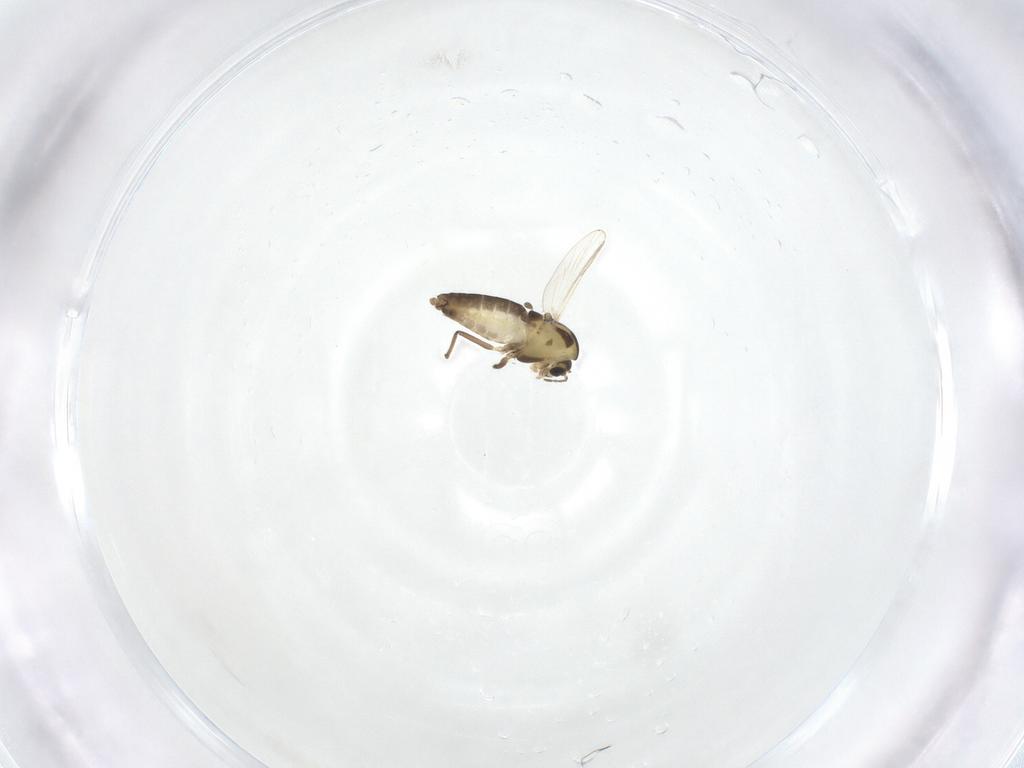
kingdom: Animalia
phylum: Arthropoda
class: Insecta
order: Diptera
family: Chironomidae
